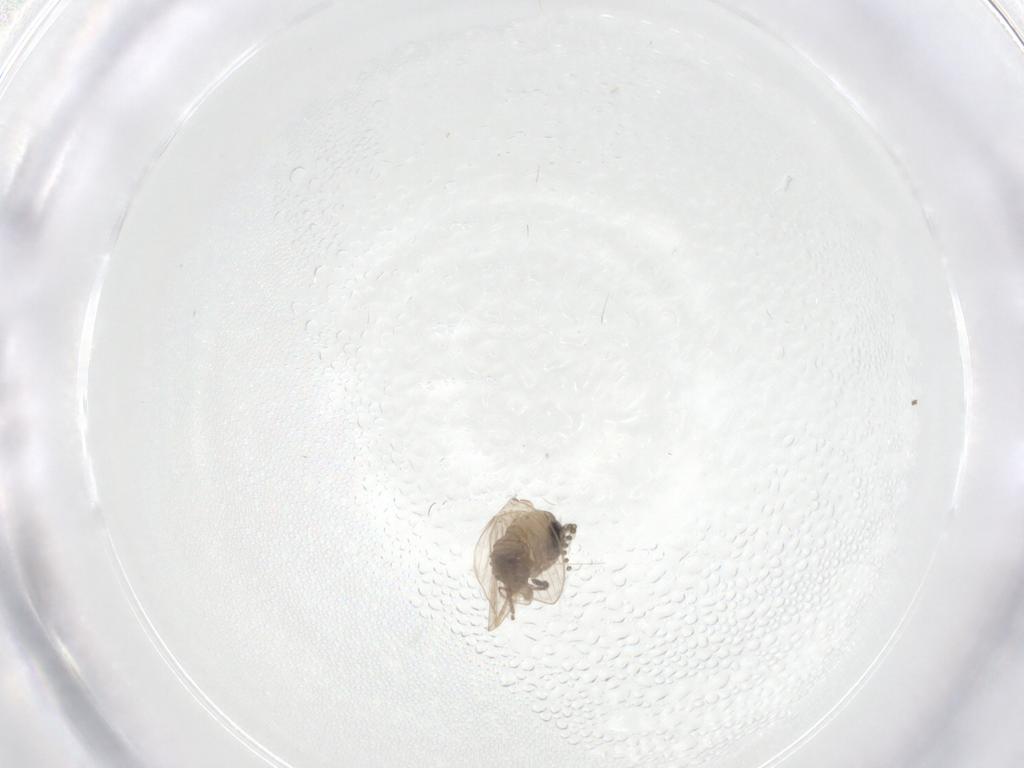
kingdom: Animalia
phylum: Arthropoda
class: Insecta
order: Diptera
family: Psychodidae
